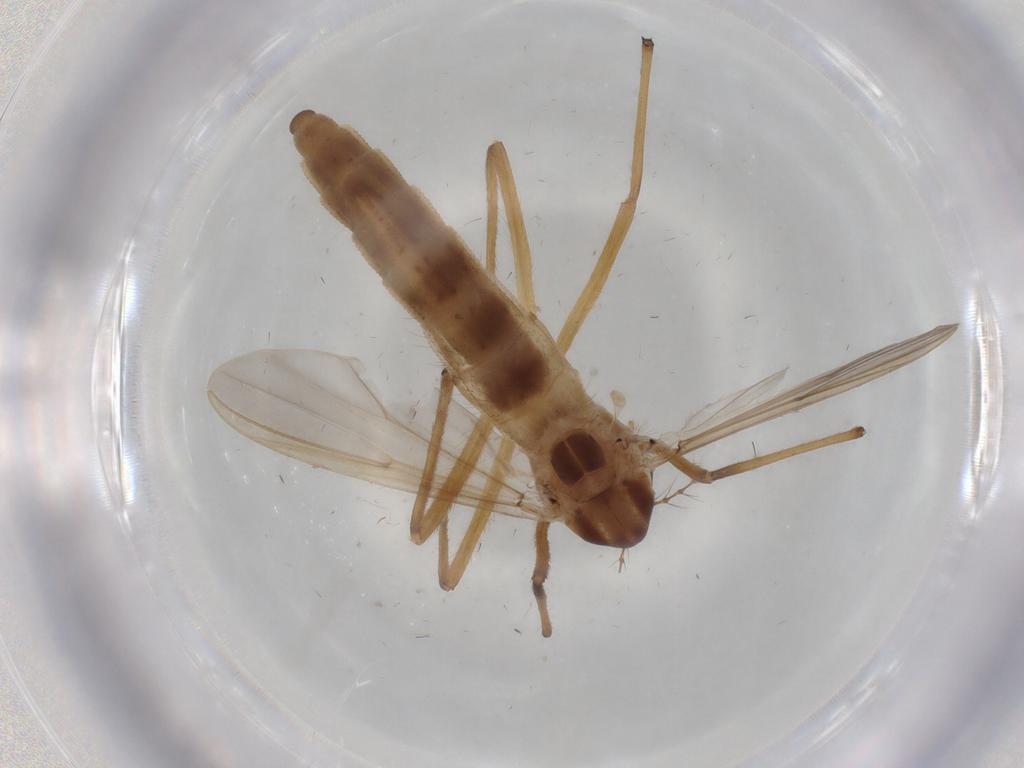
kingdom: Animalia
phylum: Arthropoda
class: Insecta
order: Diptera
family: Chironomidae
